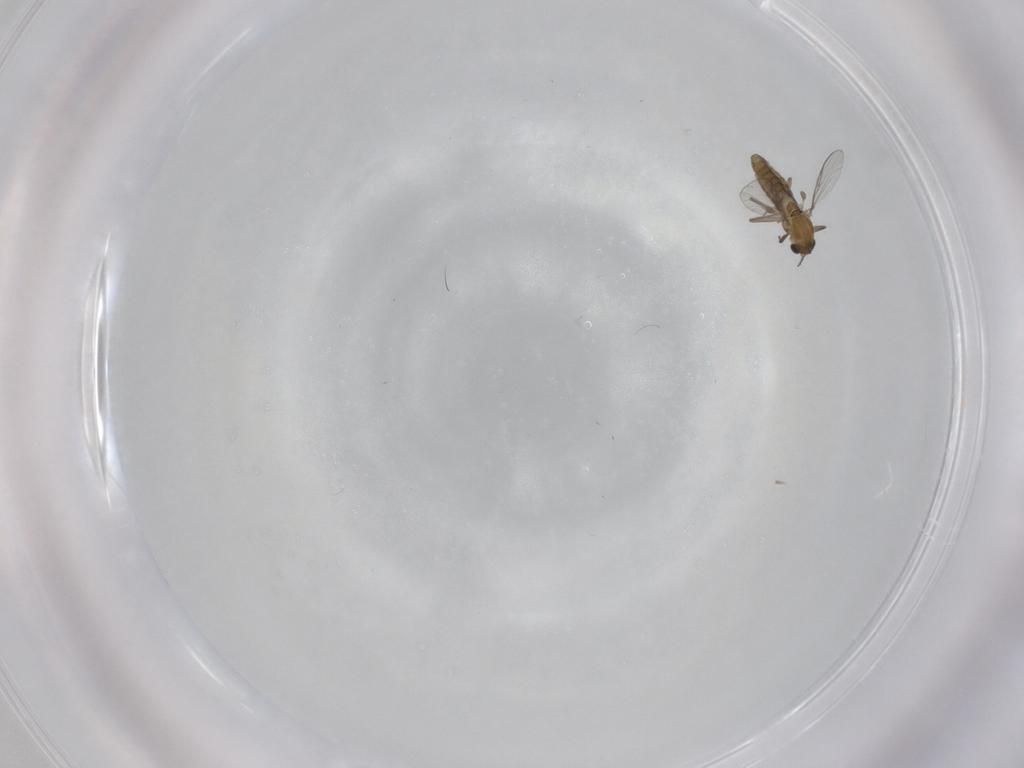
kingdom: Animalia
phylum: Arthropoda
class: Insecta
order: Diptera
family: Chironomidae
